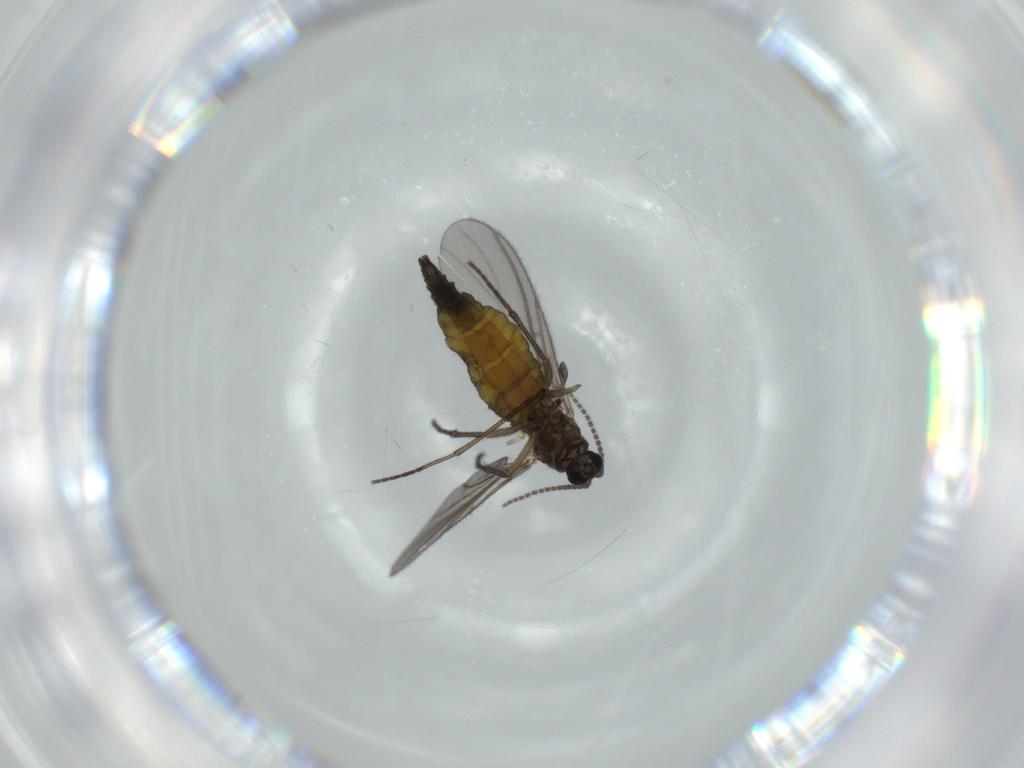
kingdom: Animalia
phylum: Arthropoda
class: Insecta
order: Diptera
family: Sciaridae
